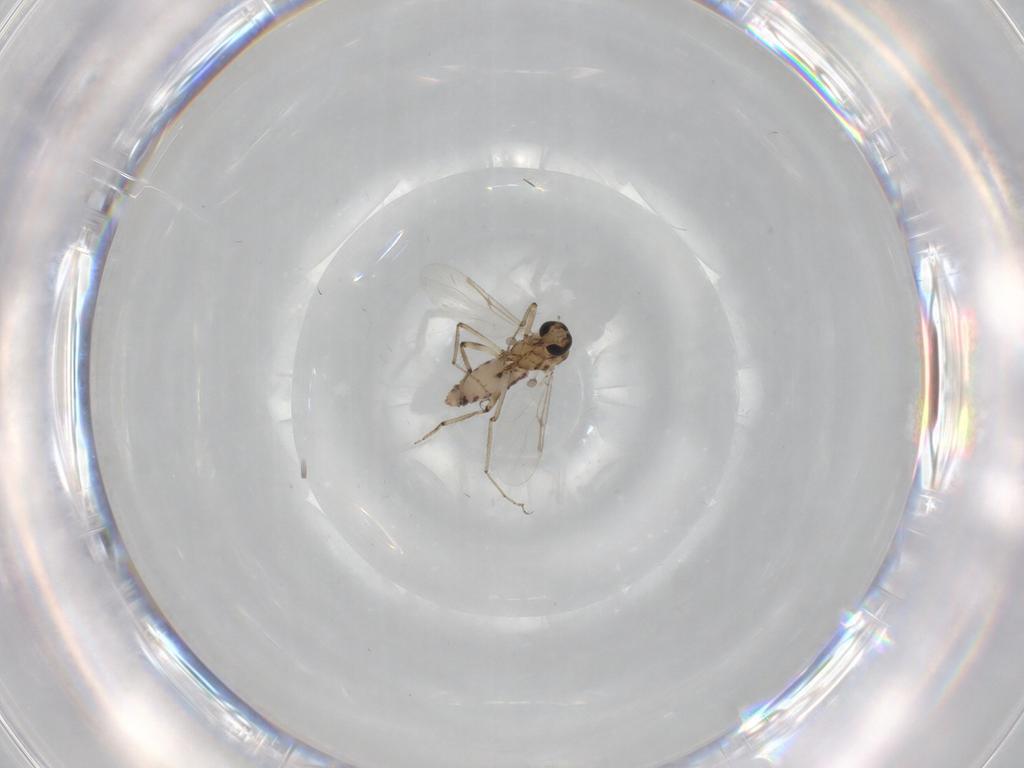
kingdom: Animalia
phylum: Arthropoda
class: Insecta
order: Diptera
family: Ceratopogonidae
